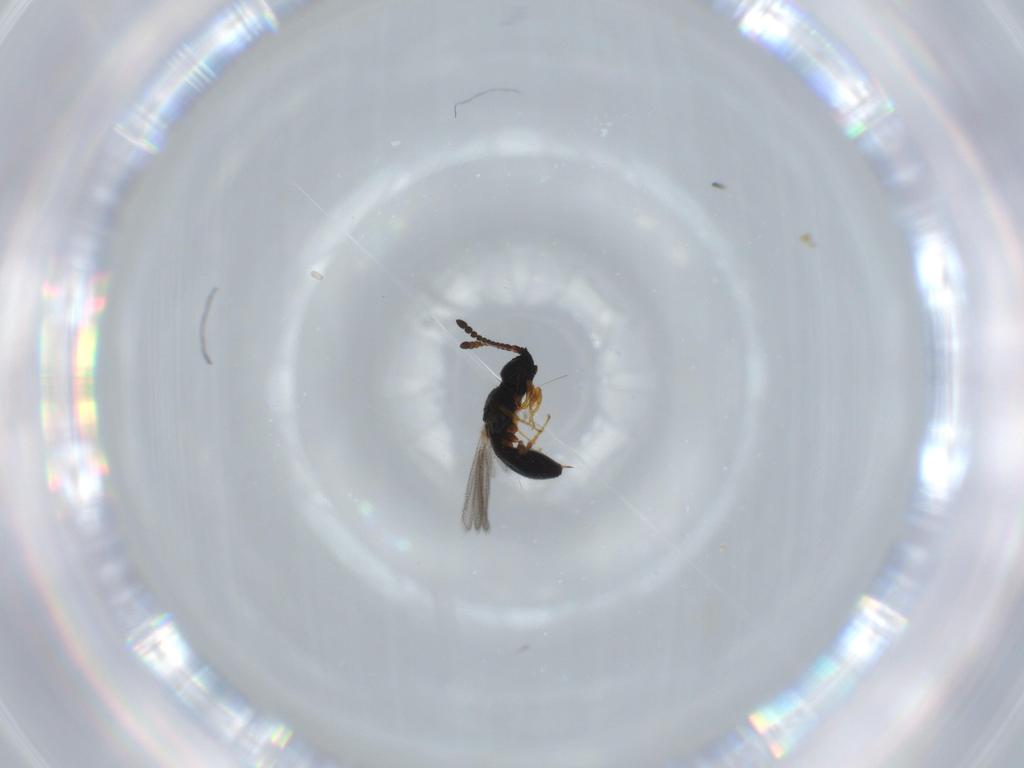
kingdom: Animalia
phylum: Arthropoda
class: Insecta
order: Hymenoptera
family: Diapriidae
